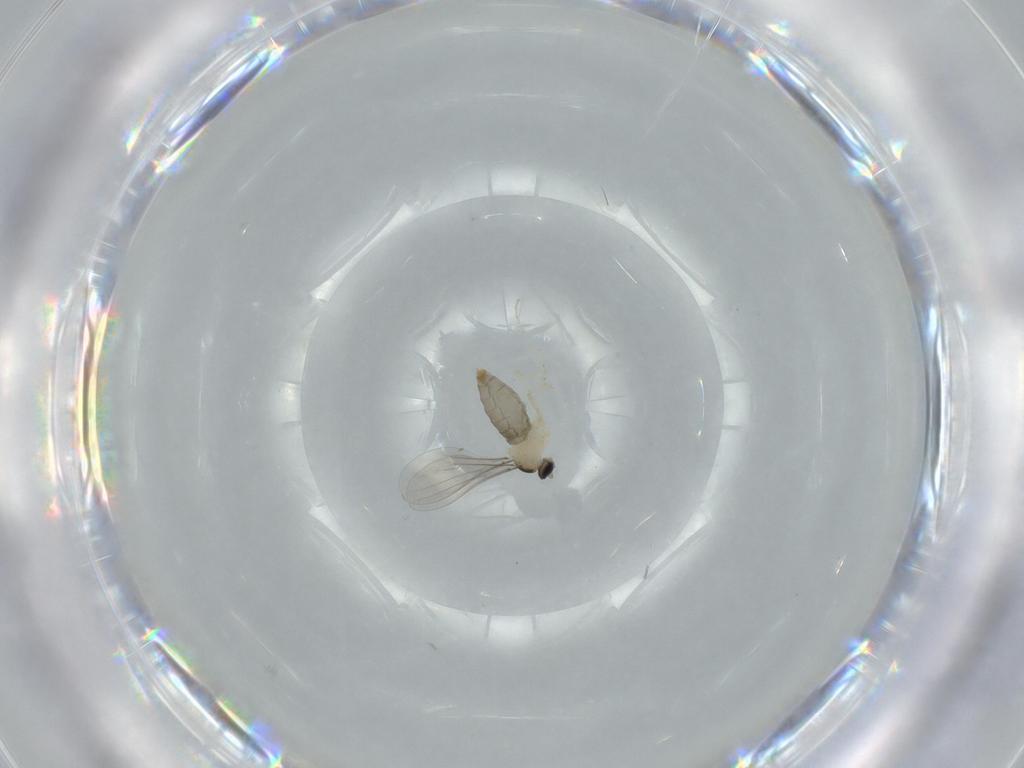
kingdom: Animalia
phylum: Arthropoda
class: Insecta
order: Diptera
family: Cecidomyiidae
